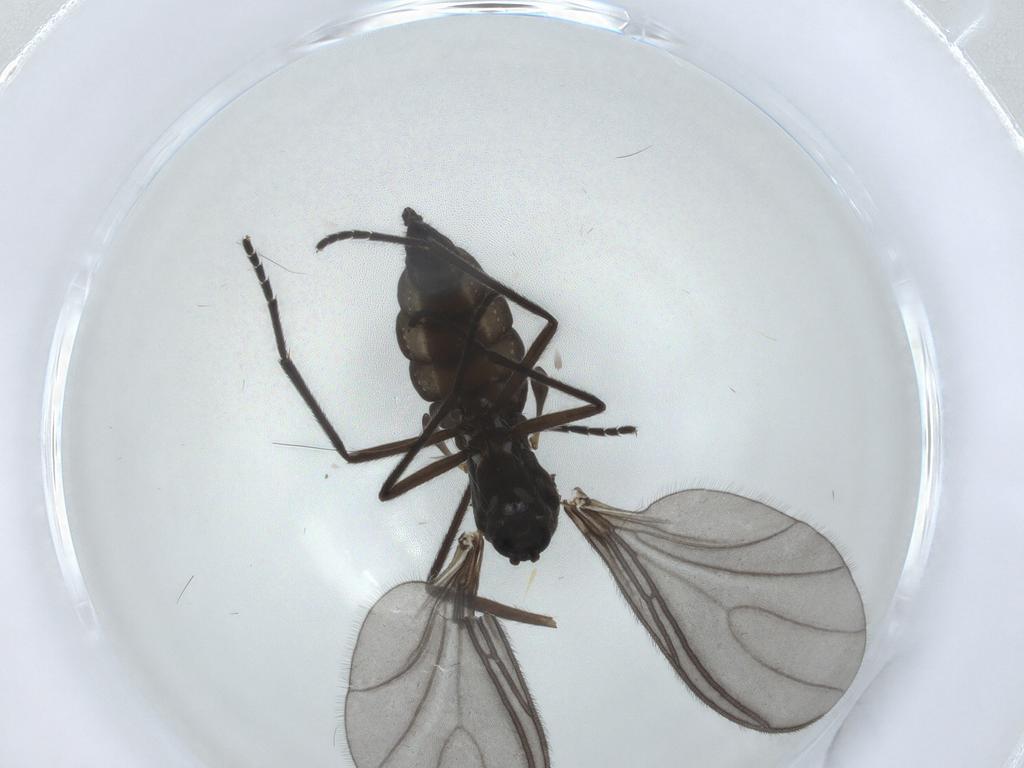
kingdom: Animalia
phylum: Arthropoda
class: Insecta
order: Diptera
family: Sciaridae
